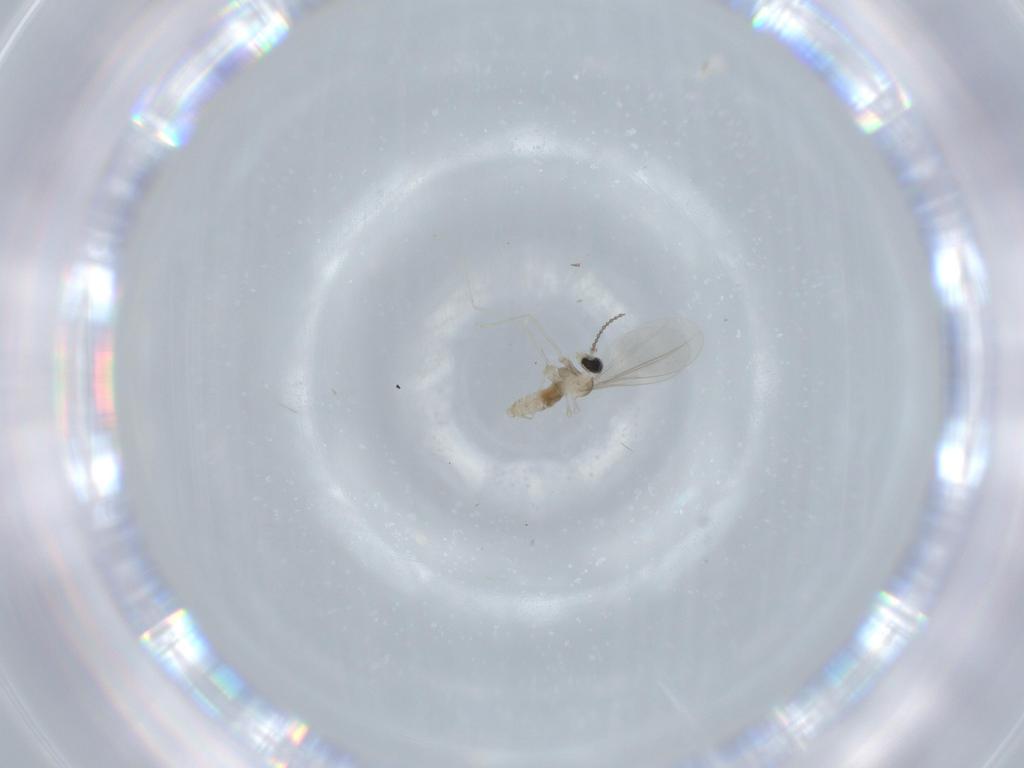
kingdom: Animalia
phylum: Arthropoda
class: Insecta
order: Diptera
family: Cecidomyiidae
